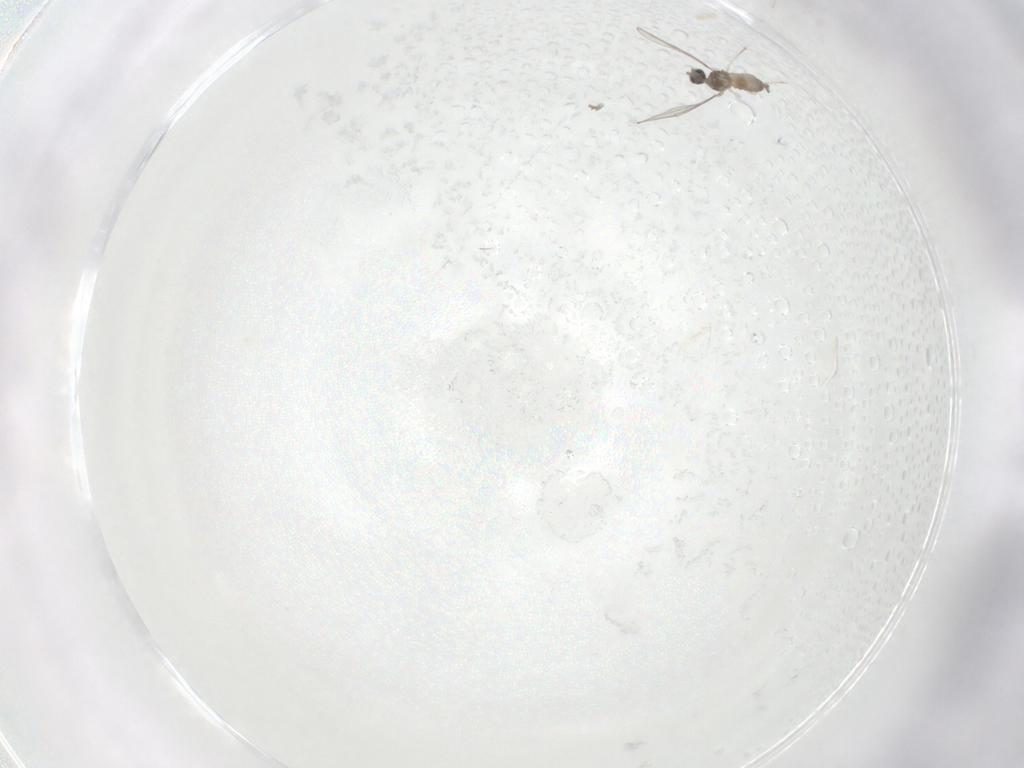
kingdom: Animalia
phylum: Arthropoda
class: Insecta
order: Diptera
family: Cecidomyiidae
